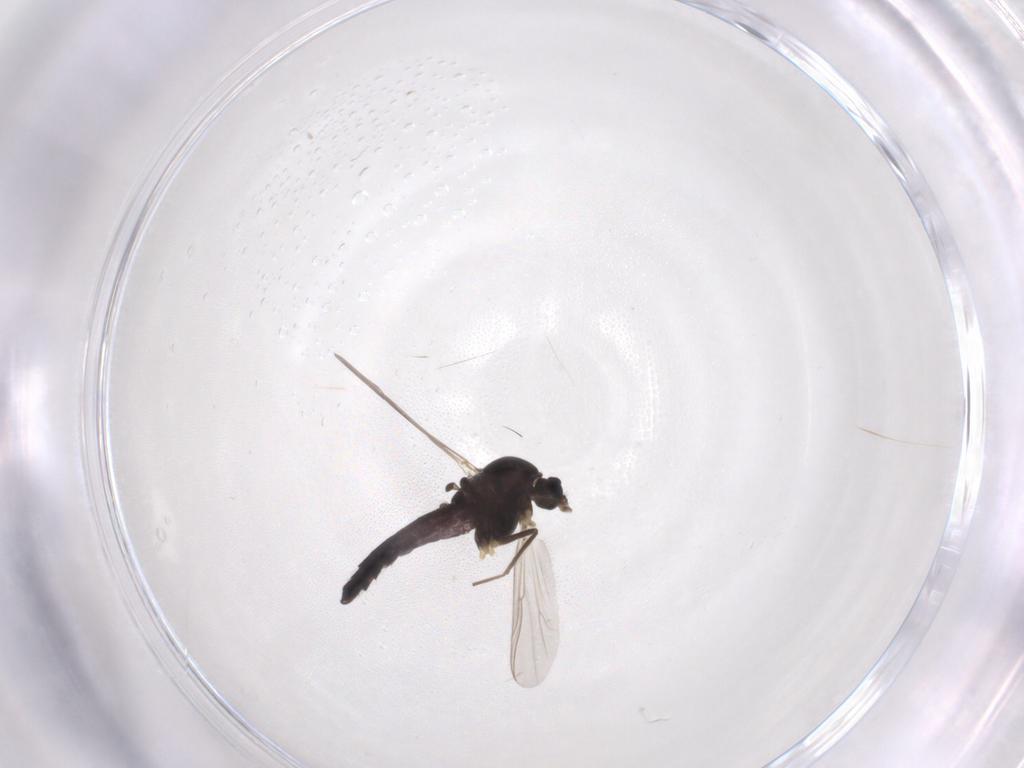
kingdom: Animalia
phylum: Arthropoda
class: Insecta
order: Diptera
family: Chironomidae
